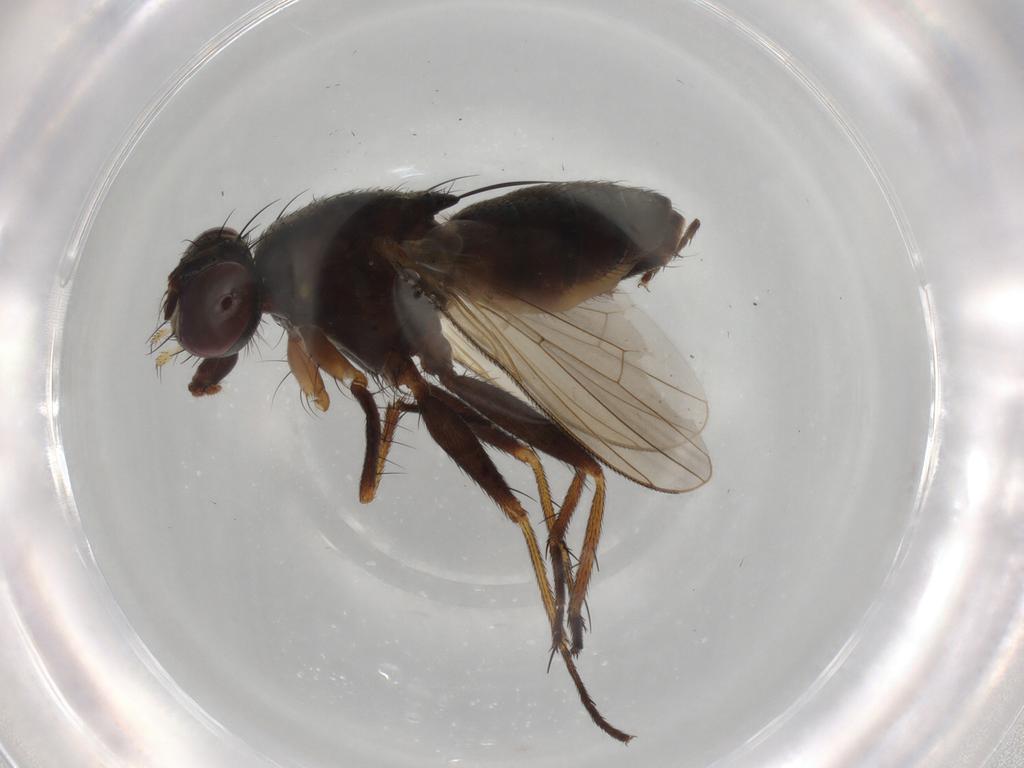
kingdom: Animalia
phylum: Arthropoda
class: Insecta
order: Diptera
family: Muscidae
